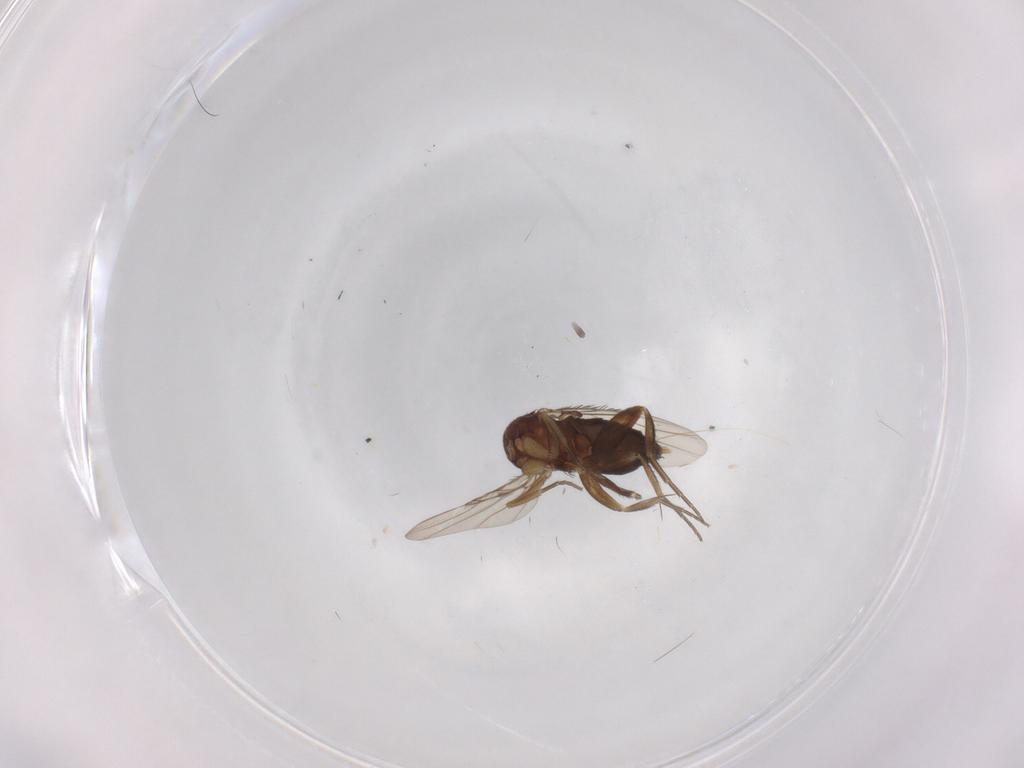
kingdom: Animalia
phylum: Arthropoda
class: Insecta
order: Diptera
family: Phoridae
